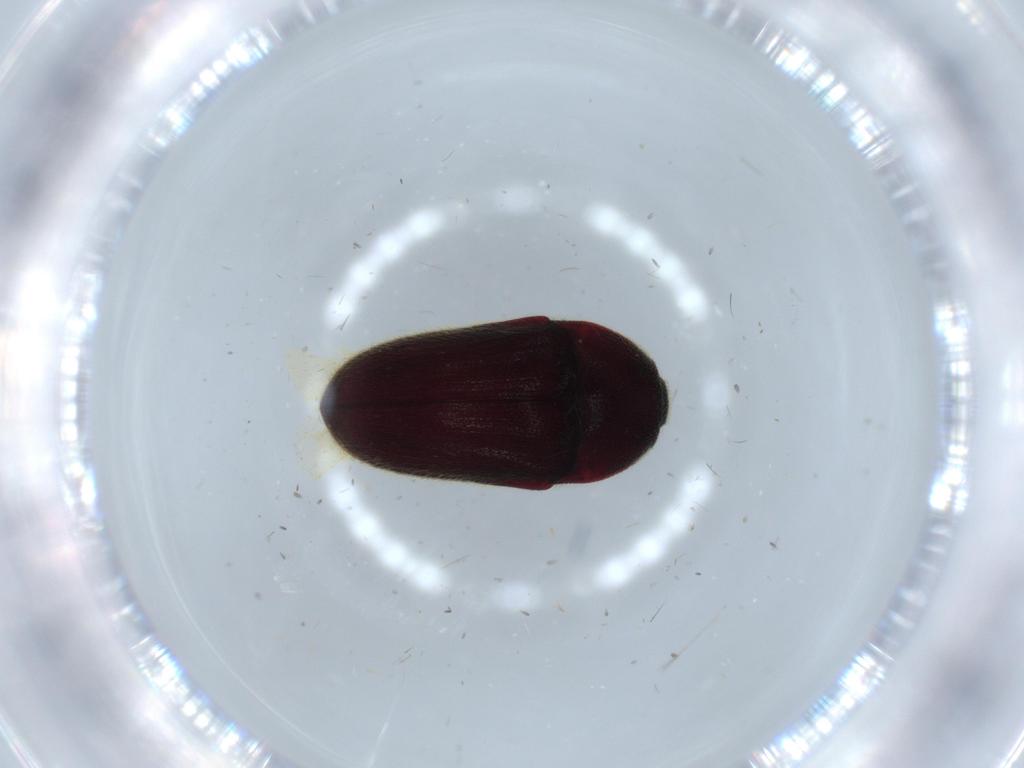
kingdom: Animalia
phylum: Arthropoda
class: Insecta
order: Coleoptera
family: Throscidae
